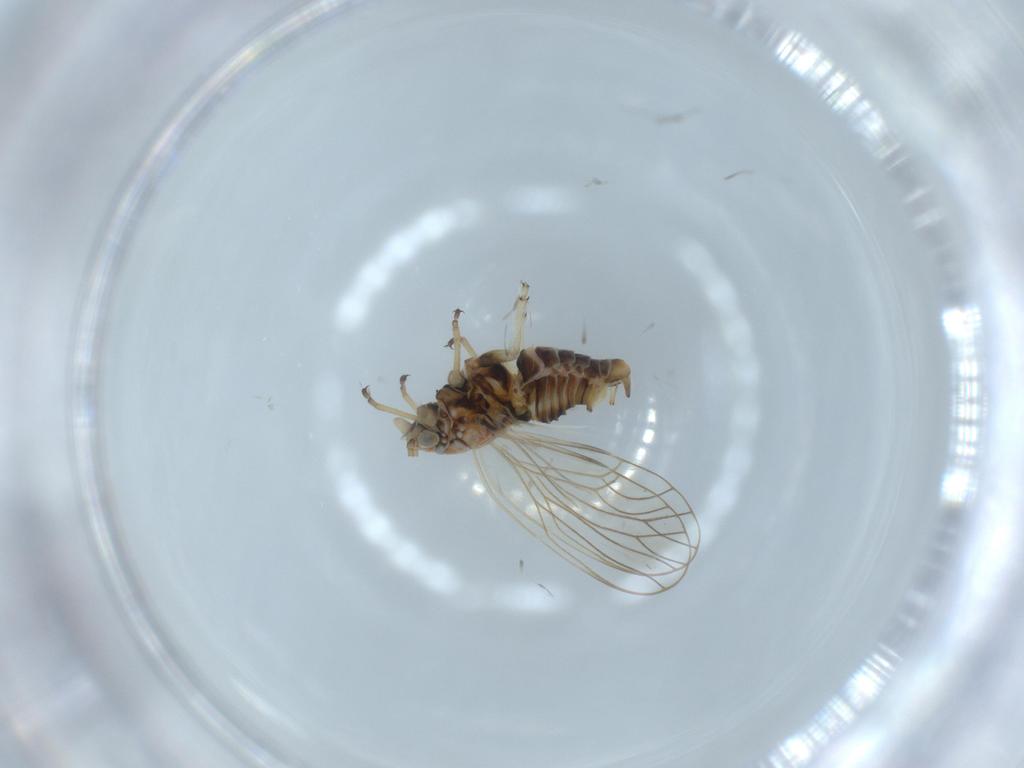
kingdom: Animalia
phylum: Arthropoda
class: Insecta
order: Hemiptera
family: Psyllidae
